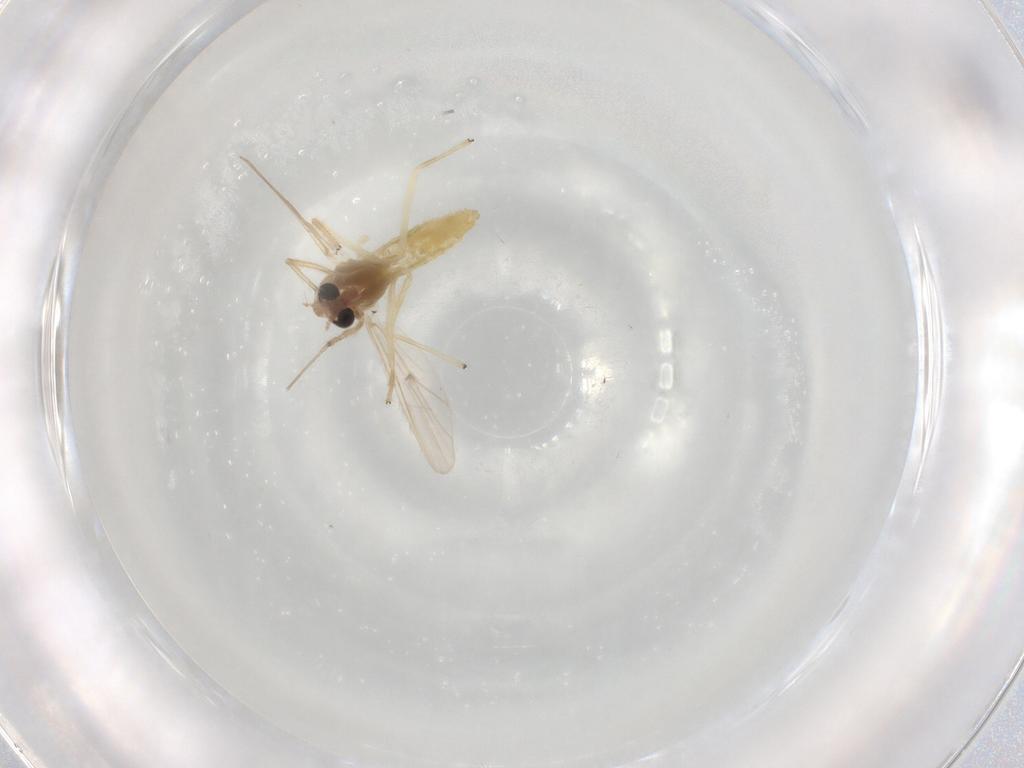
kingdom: Animalia
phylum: Arthropoda
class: Insecta
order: Diptera
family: Chironomidae
